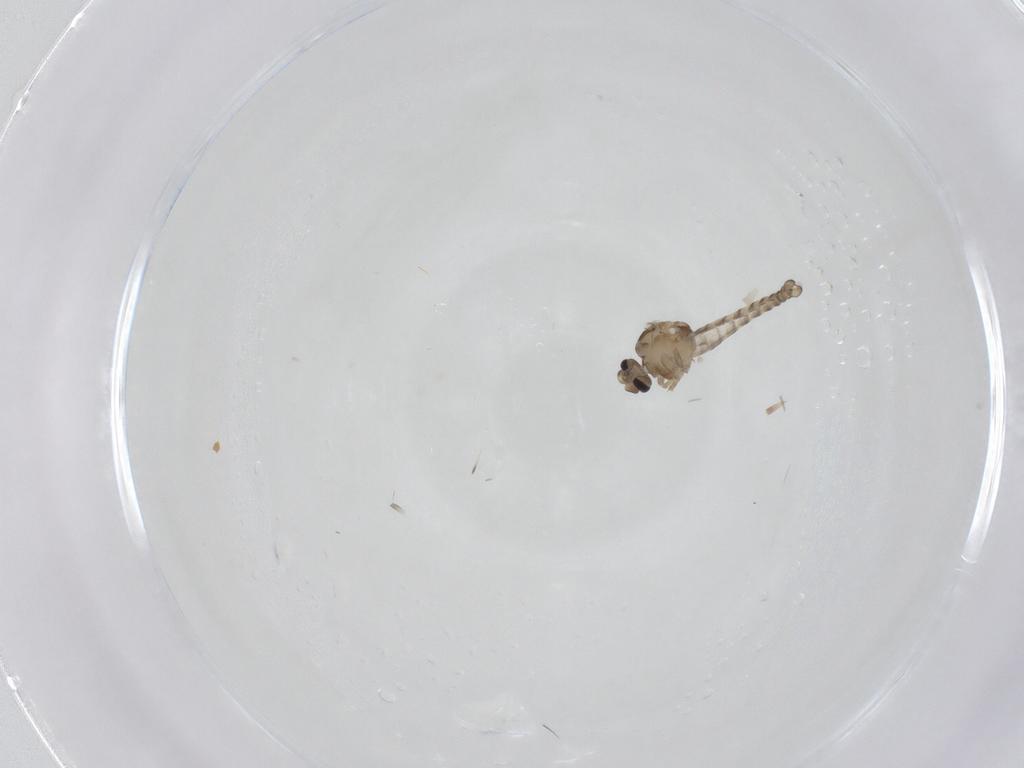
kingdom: Animalia
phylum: Arthropoda
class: Insecta
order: Diptera
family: Ceratopogonidae
